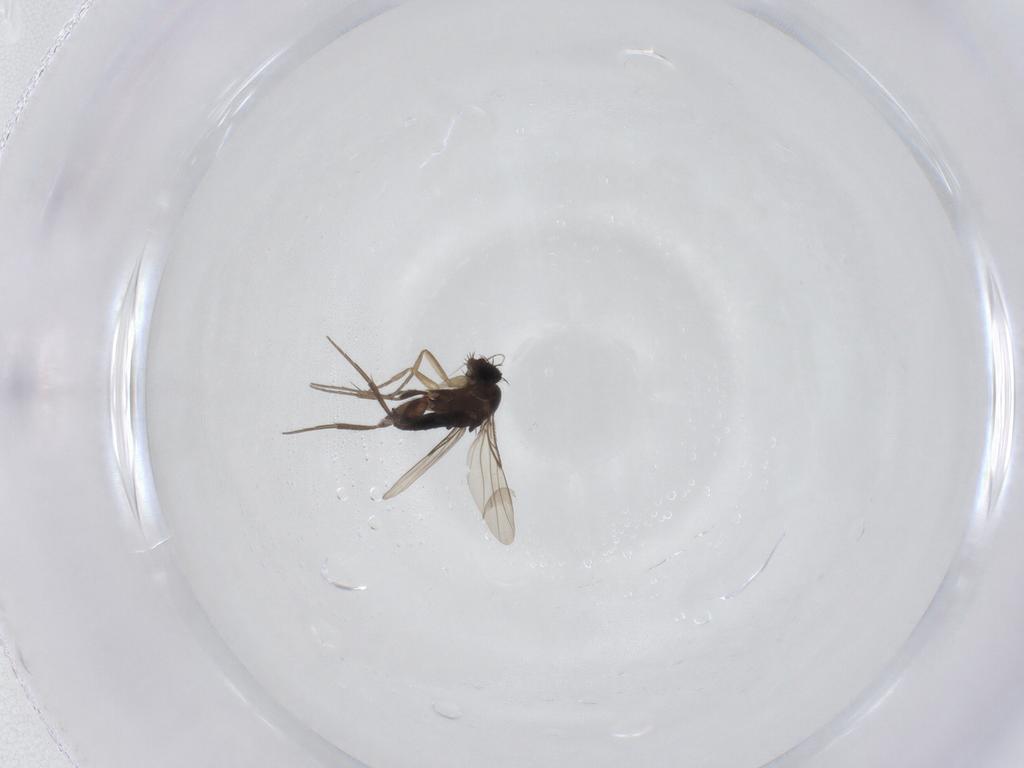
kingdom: Animalia
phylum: Arthropoda
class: Insecta
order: Diptera
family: Phoridae
